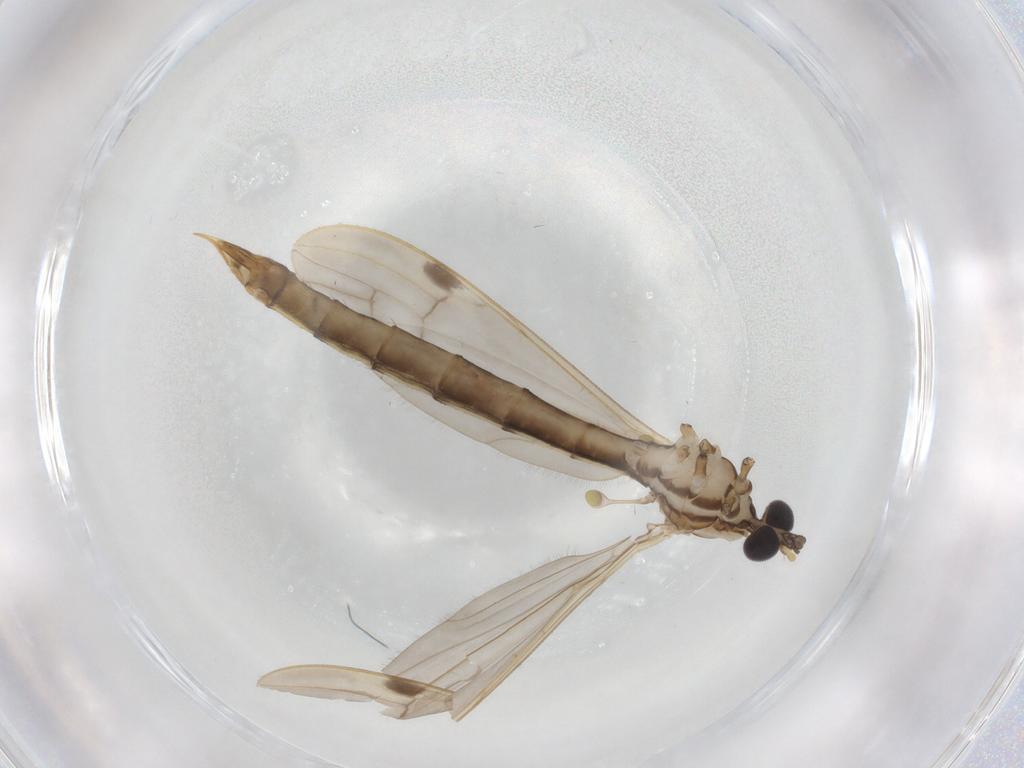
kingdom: Animalia
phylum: Arthropoda
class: Insecta
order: Diptera
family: Limoniidae
